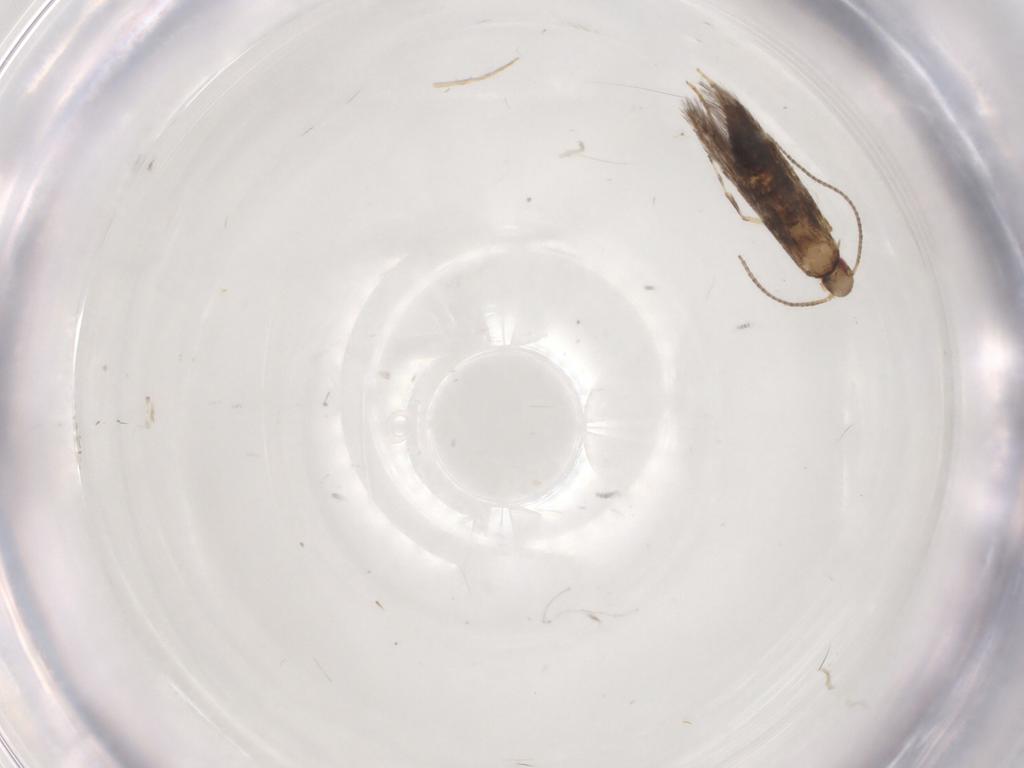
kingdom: Animalia
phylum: Arthropoda
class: Insecta
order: Lepidoptera
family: Gracillariidae
